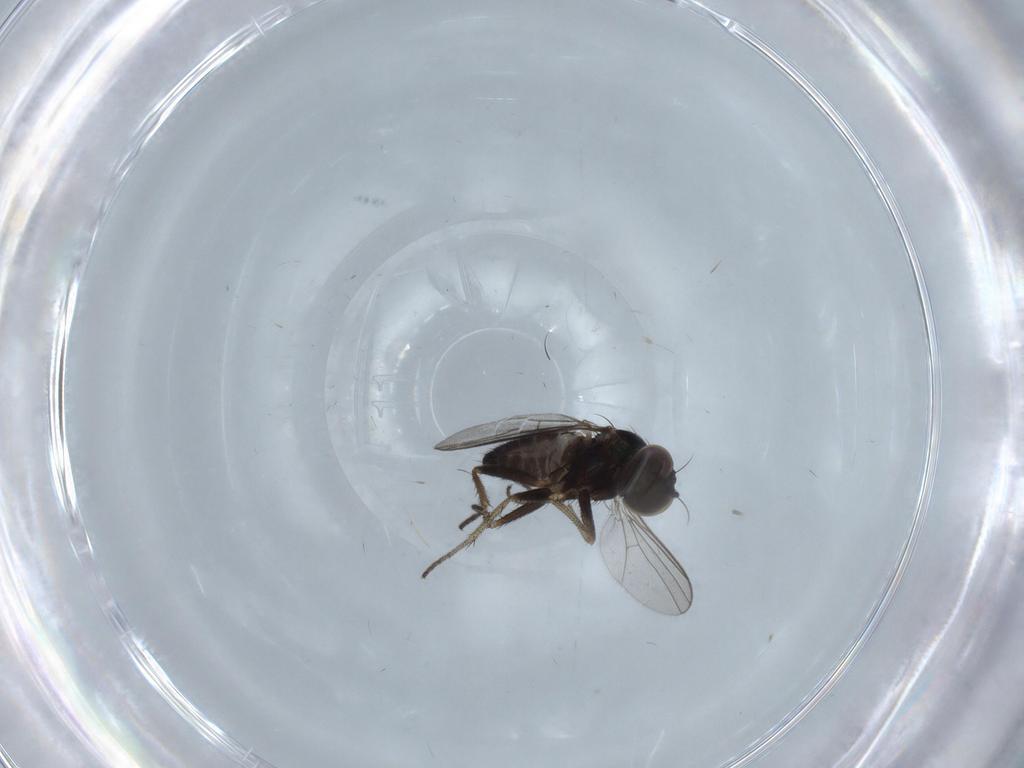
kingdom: Animalia
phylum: Arthropoda
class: Insecta
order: Diptera
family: Dolichopodidae
